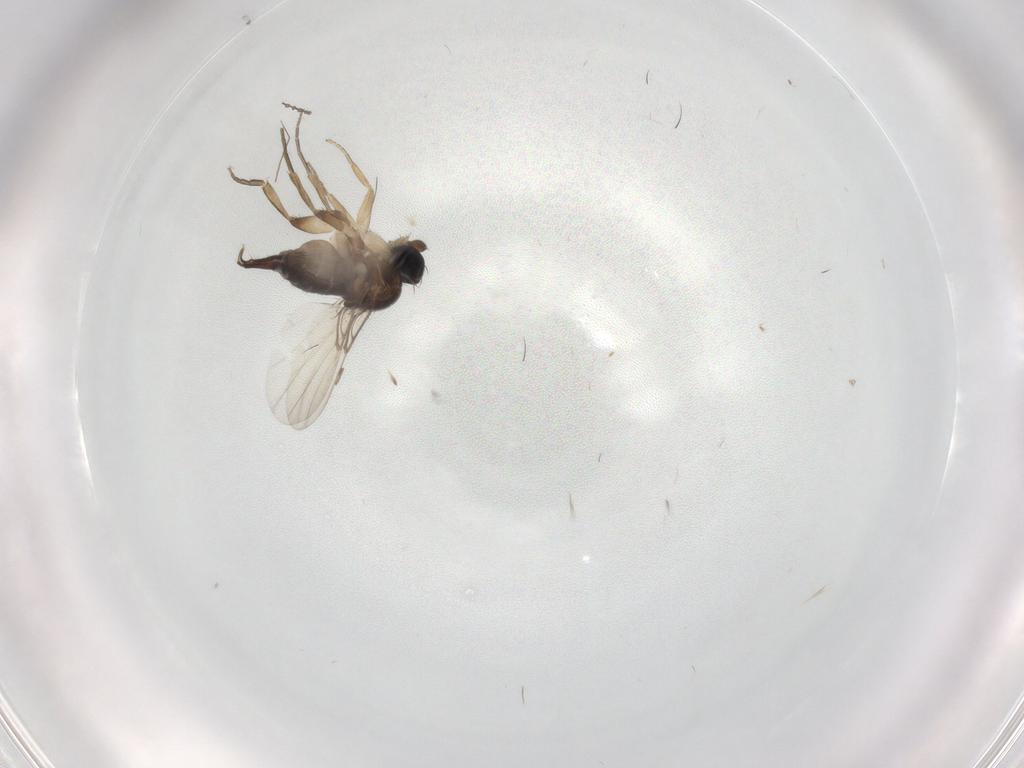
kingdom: Animalia
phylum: Arthropoda
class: Insecta
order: Diptera
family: Phoridae
